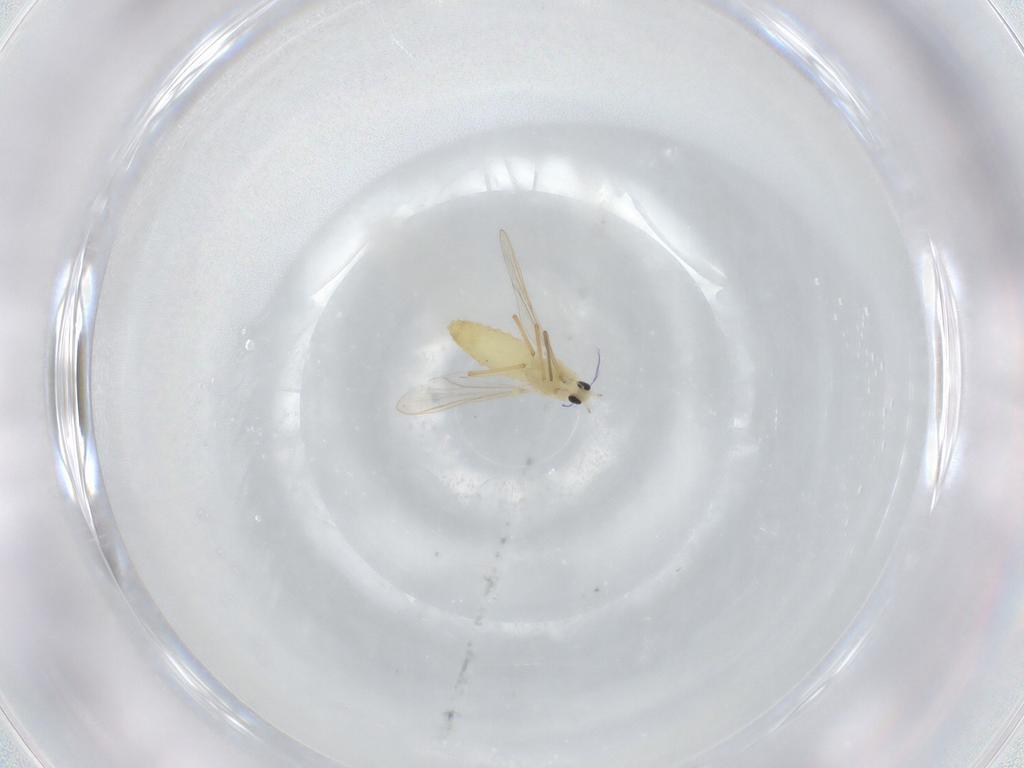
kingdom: Animalia
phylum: Arthropoda
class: Insecta
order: Diptera
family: Chironomidae
